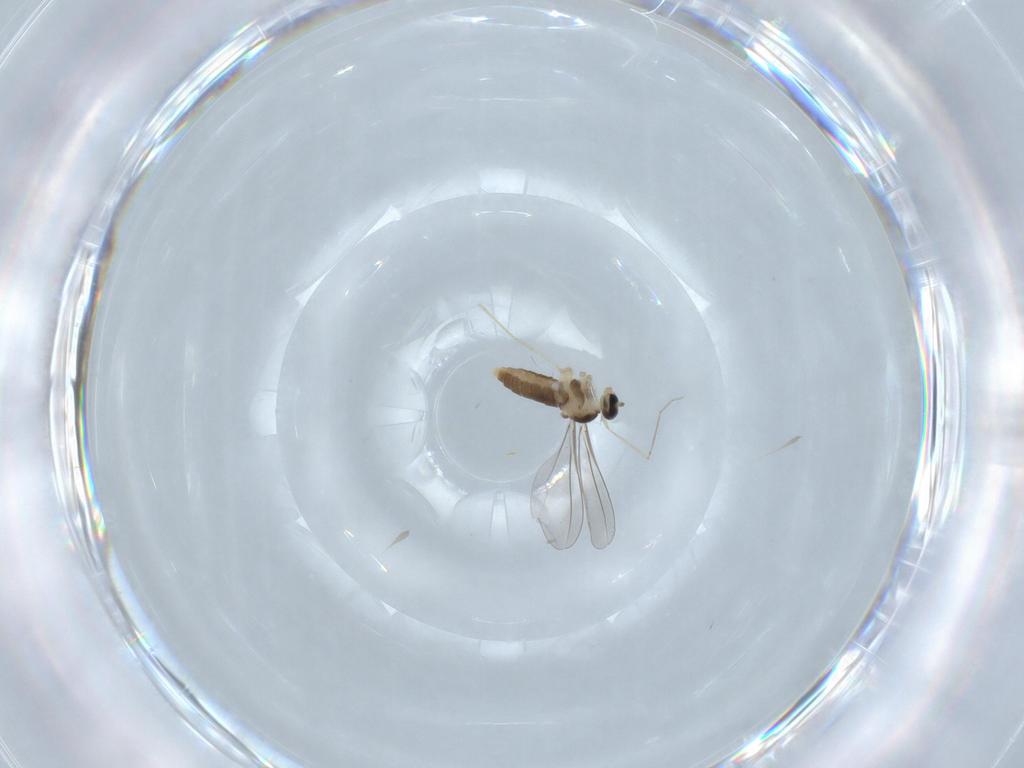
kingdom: Animalia
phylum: Arthropoda
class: Insecta
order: Diptera
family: Cecidomyiidae
